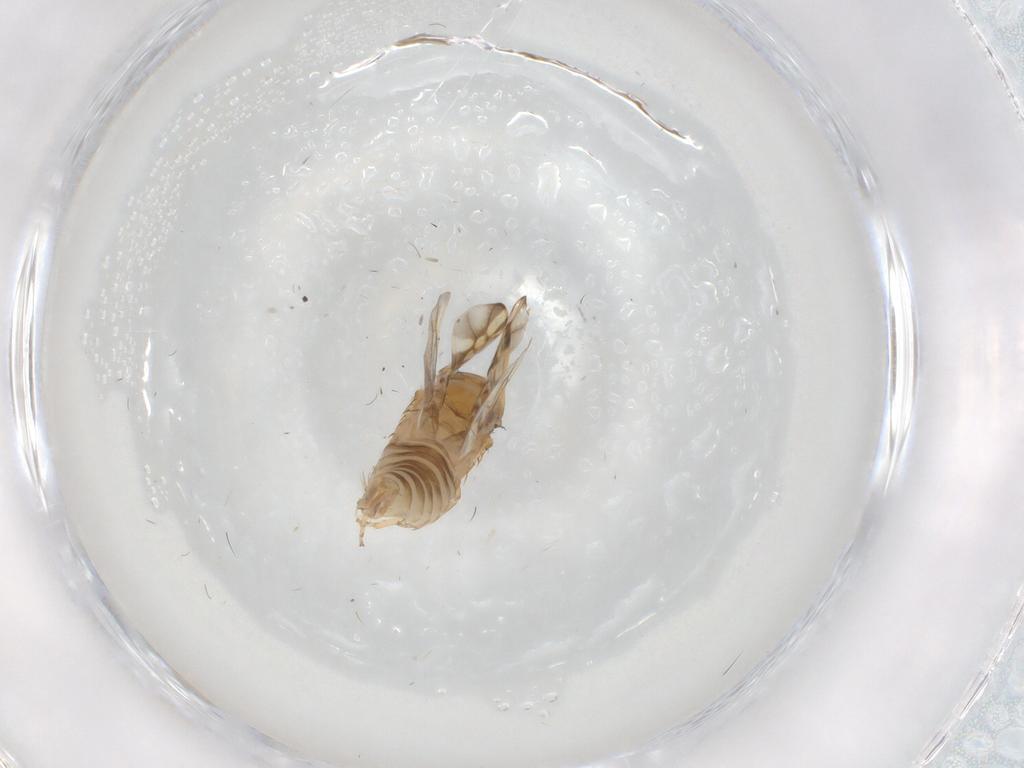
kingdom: Animalia
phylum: Arthropoda
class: Insecta
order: Hemiptera
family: Cicadellidae
